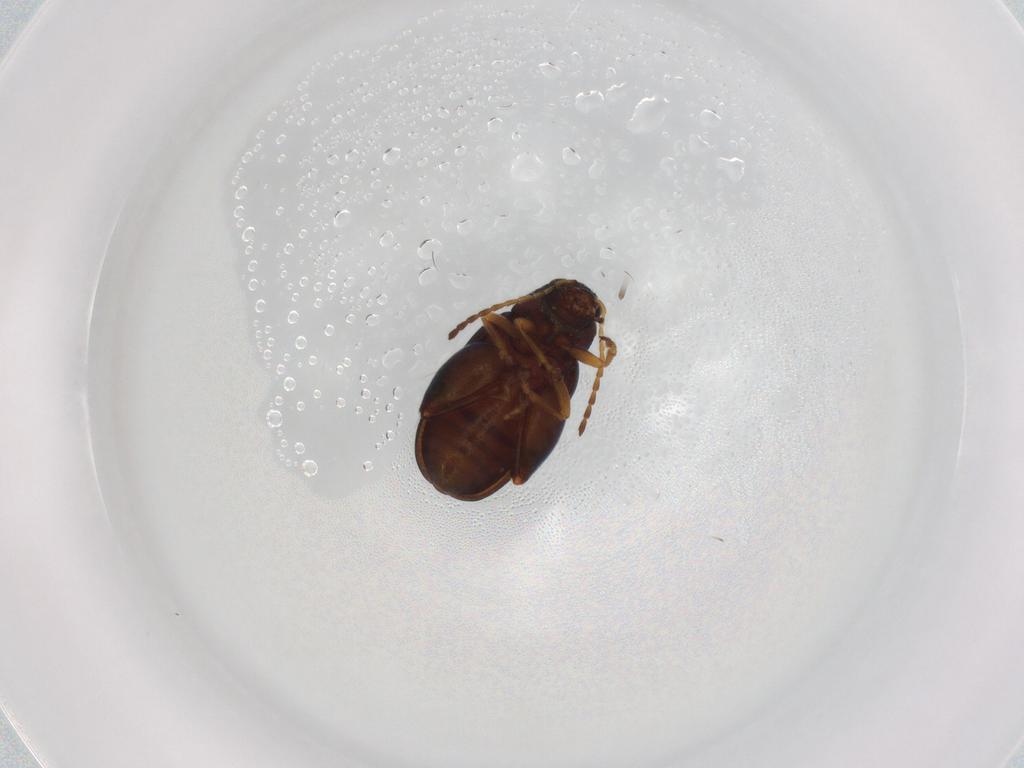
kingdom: Animalia
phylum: Arthropoda
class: Insecta
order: Coleoptera
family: Chrysomelidae
